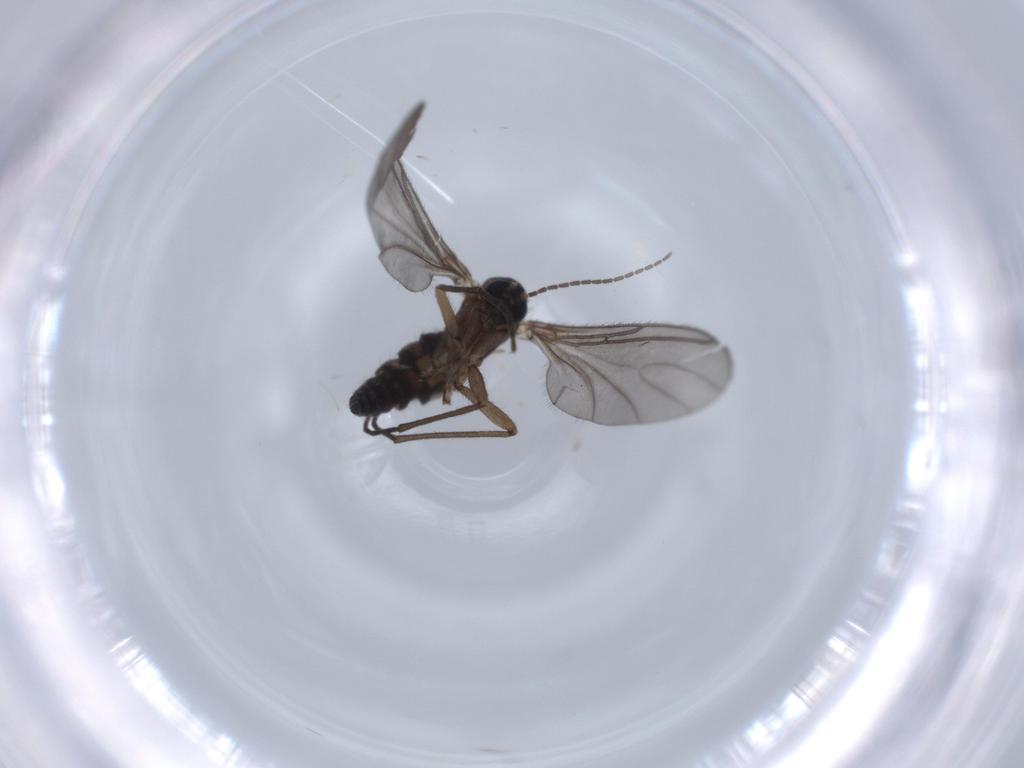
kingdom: Animalia
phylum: Arthropoda
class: Insecta
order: Diptera
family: Sciaridae
